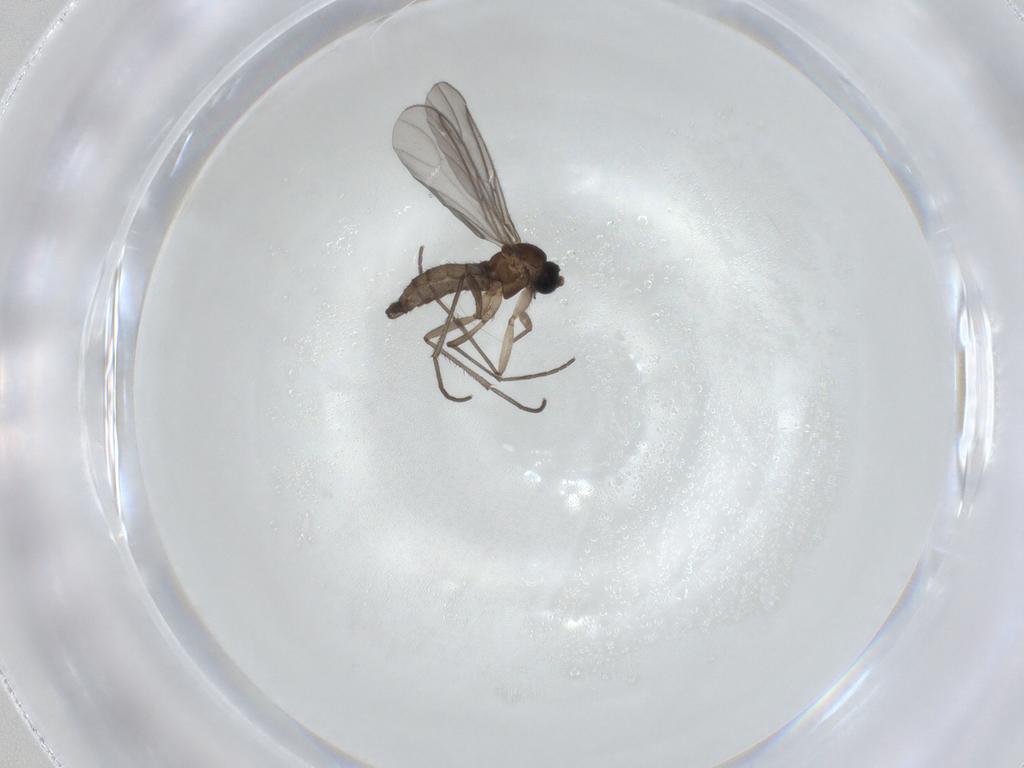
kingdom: Animalia
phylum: Arthropoda
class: Insecta
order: Diptera
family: Sciaridae
